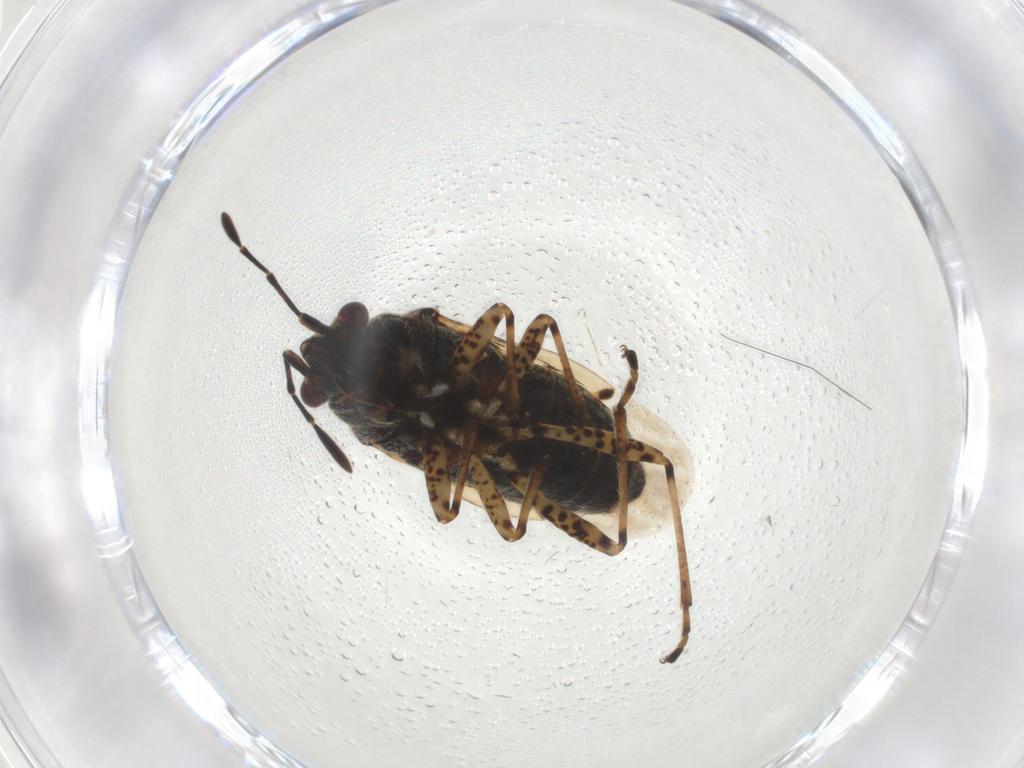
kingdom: Animalia
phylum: Arthropoda
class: Insecta
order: Hemiptera
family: Lygaeidae
